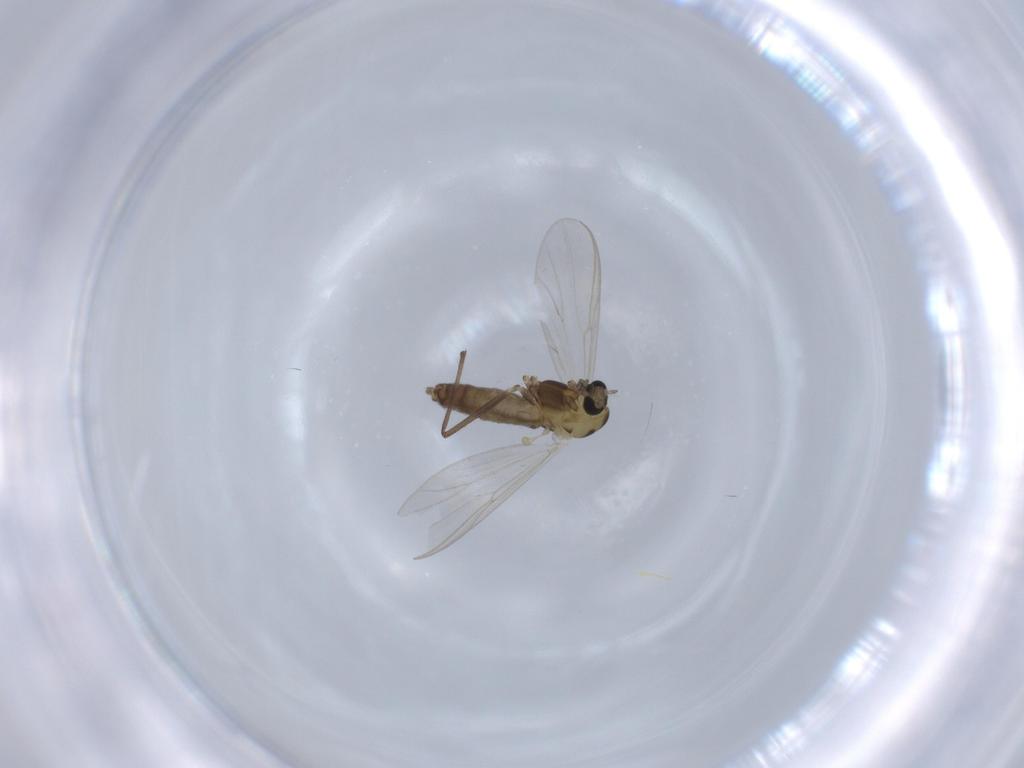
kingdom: Animalia
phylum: Arthropoda
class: Insecta
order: Diptera
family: Chironomidae
